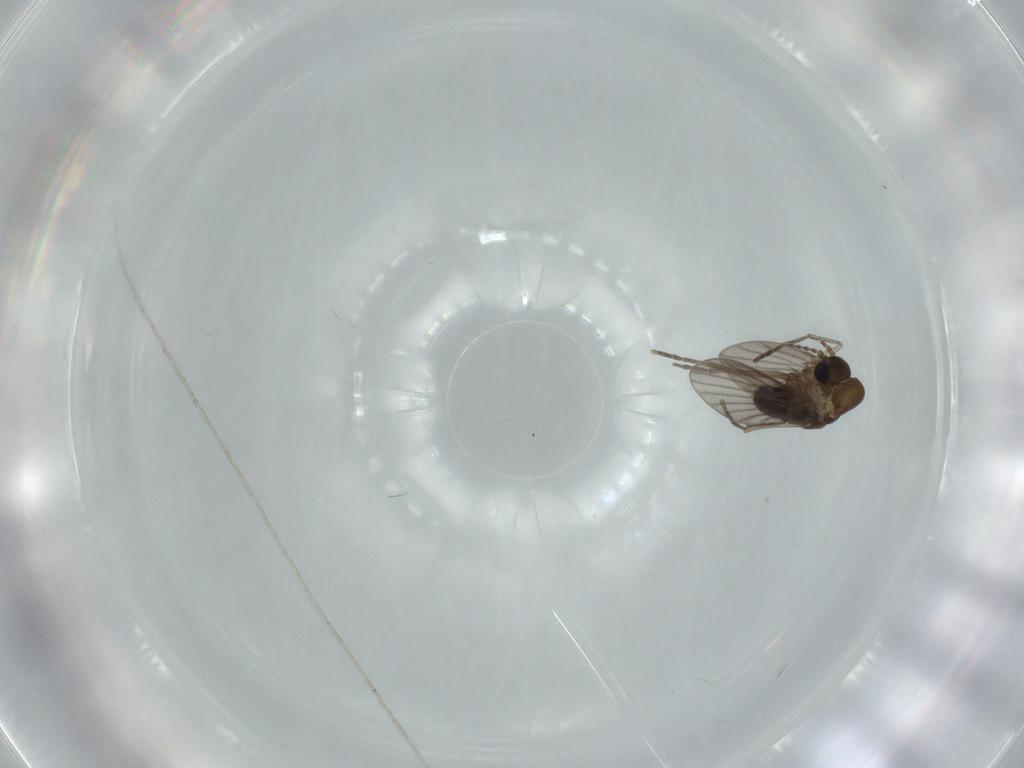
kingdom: Animalia
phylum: Arthropoda
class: Insecta
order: Diptera
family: Psychodidae
